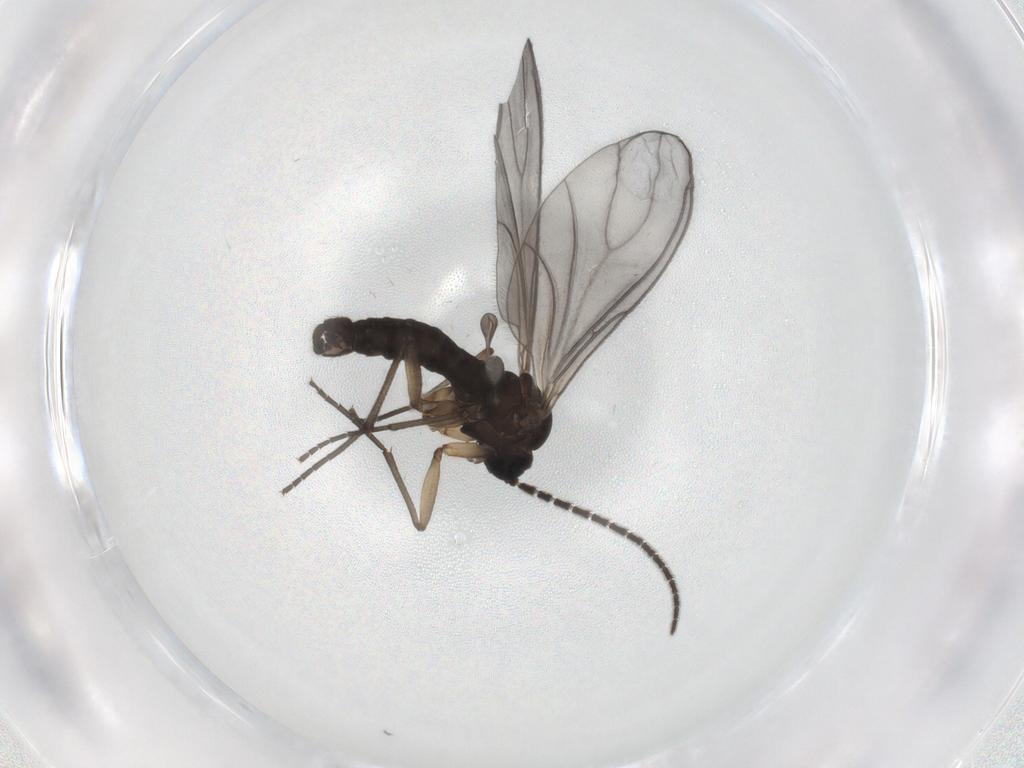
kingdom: Animalia
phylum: Arthropoda
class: Insecta
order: Diptera
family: Sciaridae
